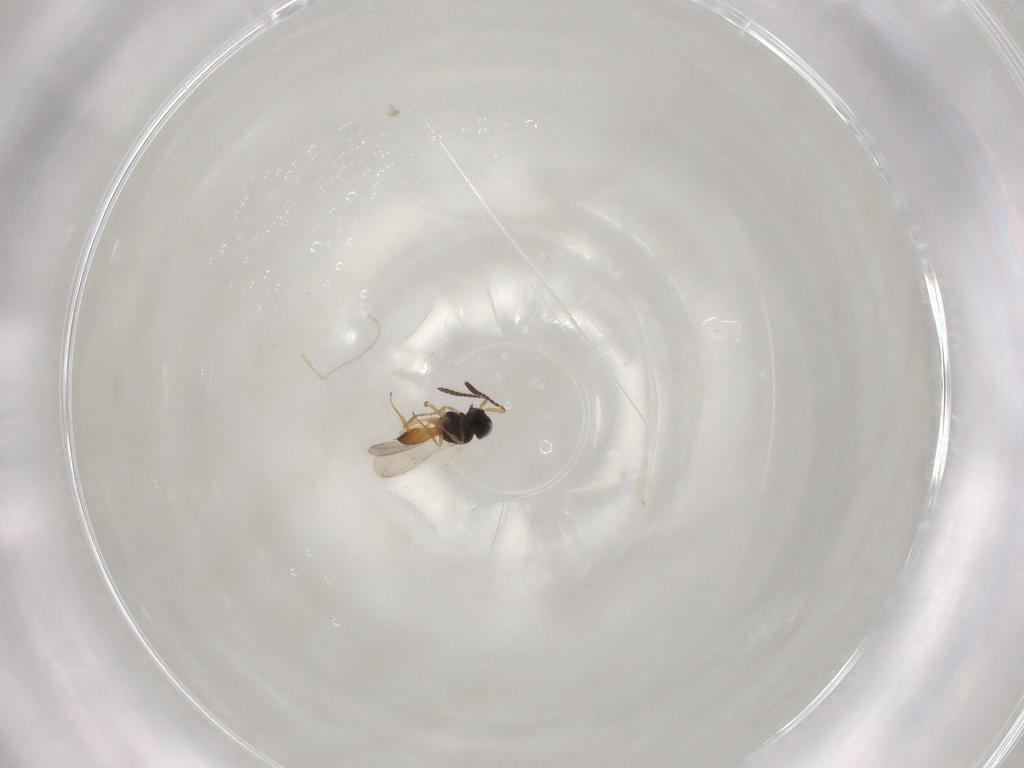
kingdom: Animalia
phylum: Arthropoda
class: Insecta
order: Hymenoptera
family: Scelionidae
